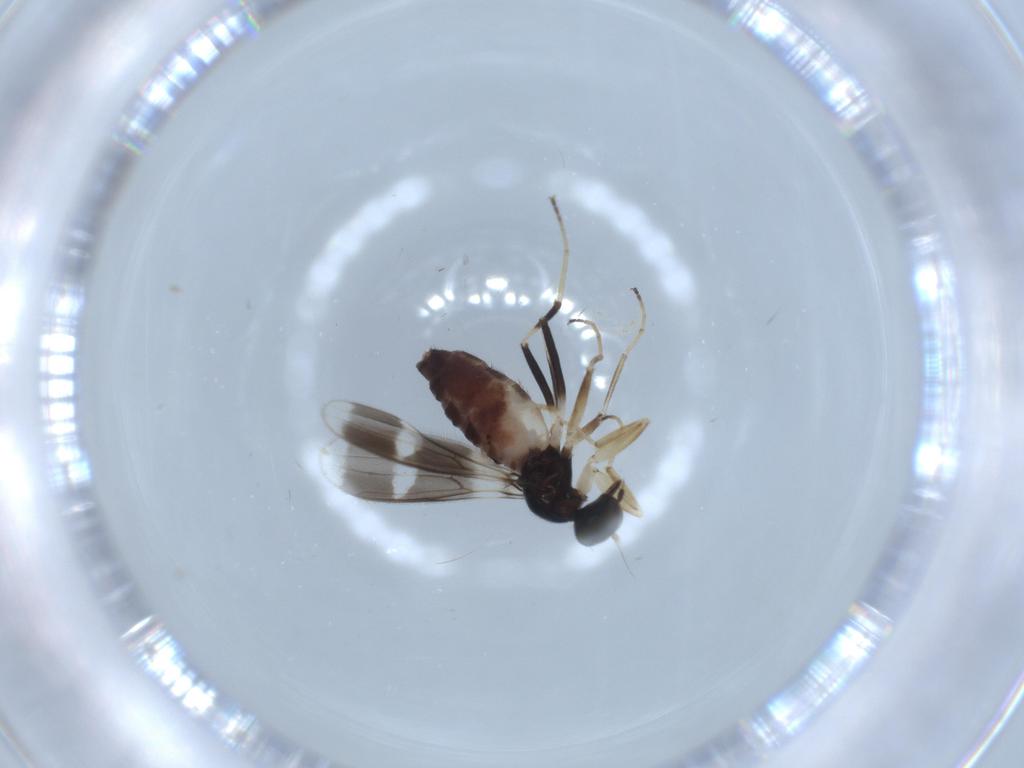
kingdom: Animalia
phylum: Arthropoda
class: Insecta
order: Diptera
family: Hybotidae
